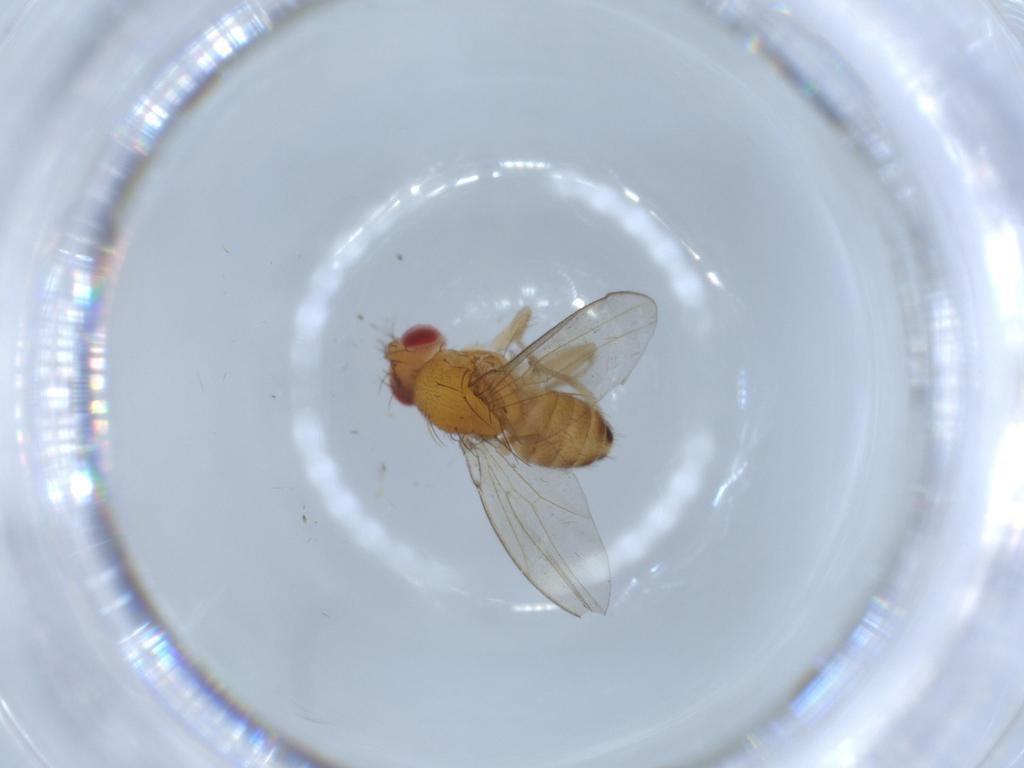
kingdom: Animalia
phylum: Arthropoda
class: Insecta
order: Diptera
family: Drosophilidae
